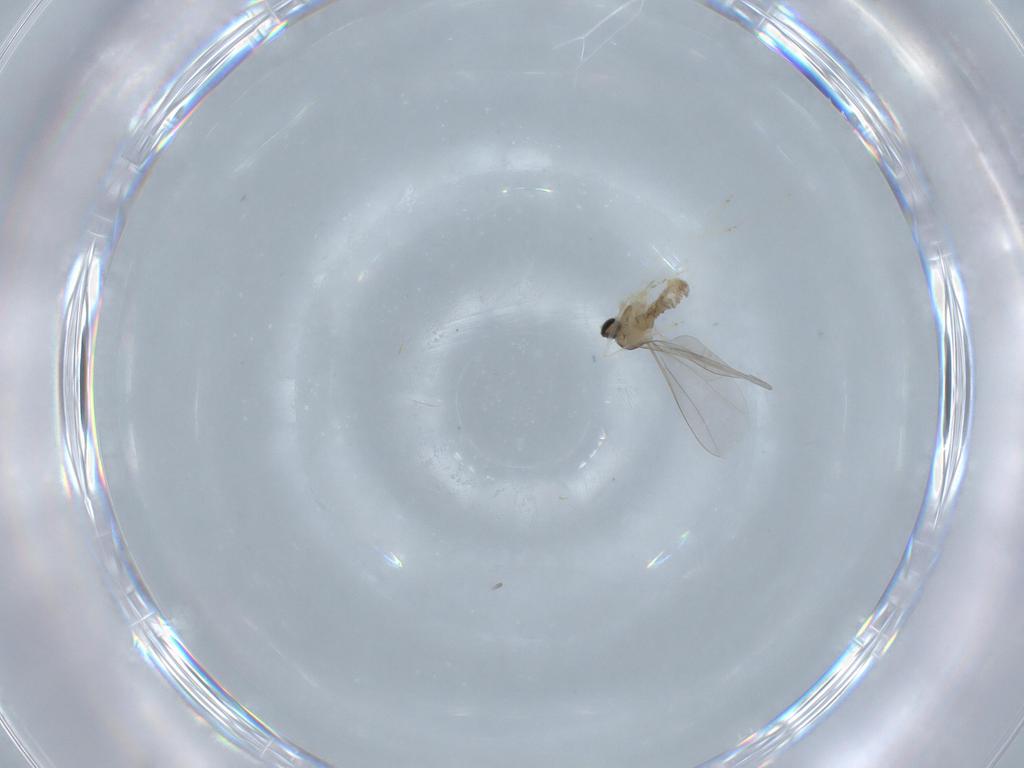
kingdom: Animalia
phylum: Arthropoda
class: Insecta
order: Diptera
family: Cecidomyiidae
